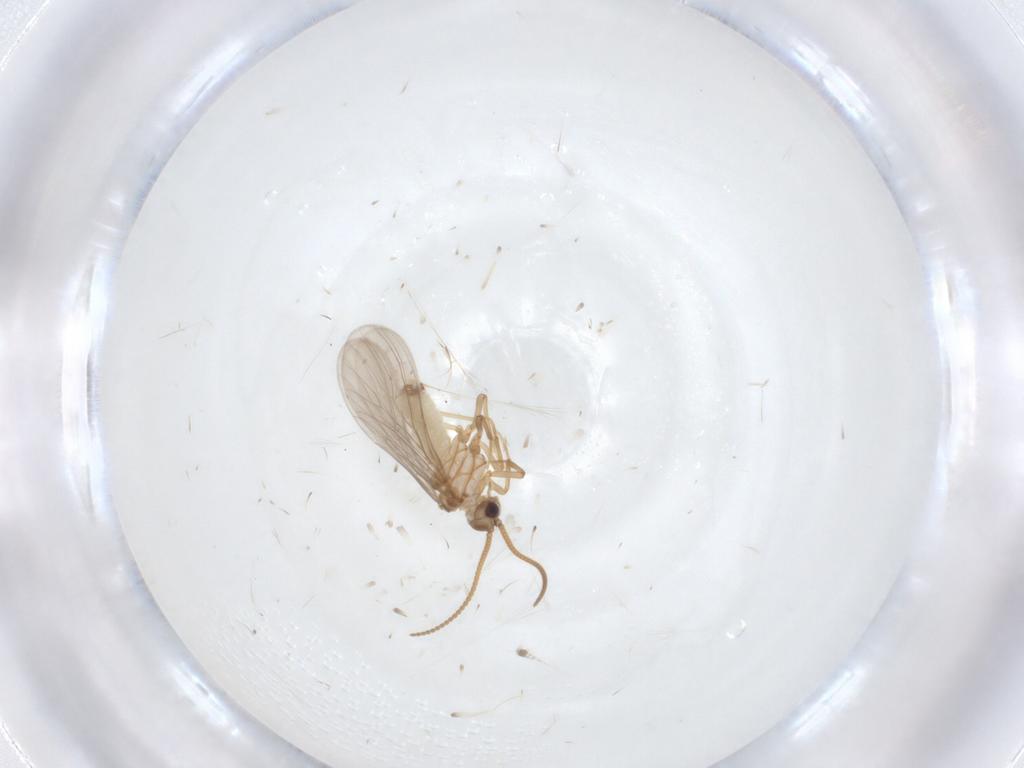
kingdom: Animalia
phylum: Arthropoda
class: Insecta
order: Neuroptera
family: Coniopterygidae
